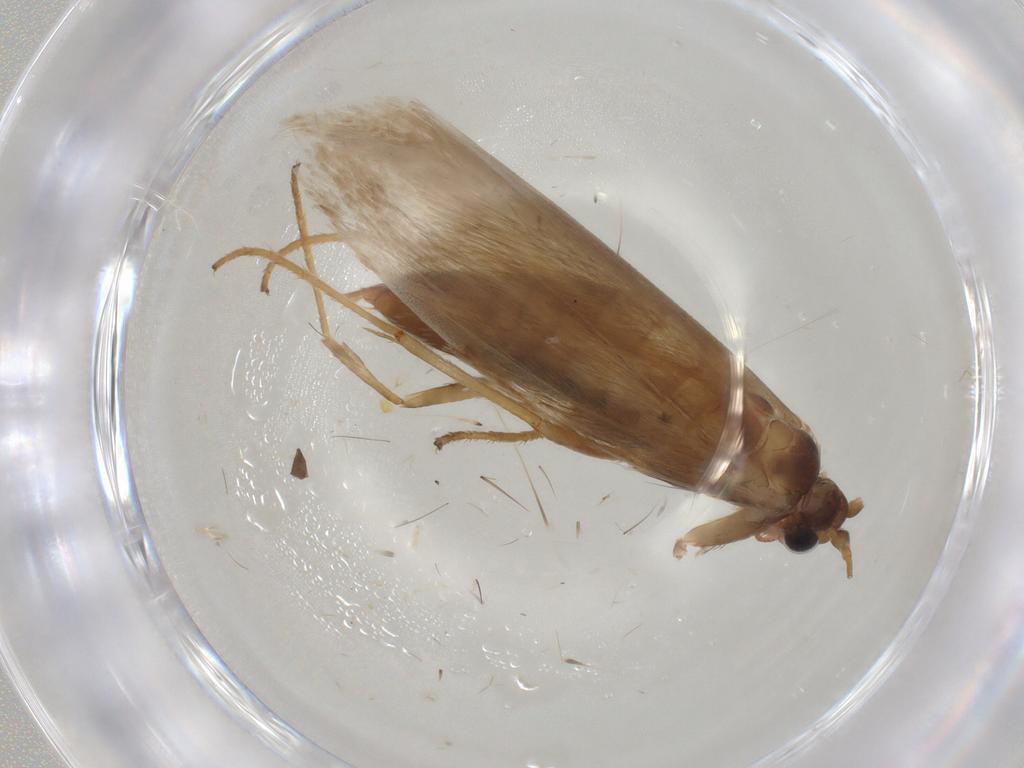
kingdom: Animalia
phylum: Arthropoda
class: Insecta
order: Lepidoptera
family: Adelidae
